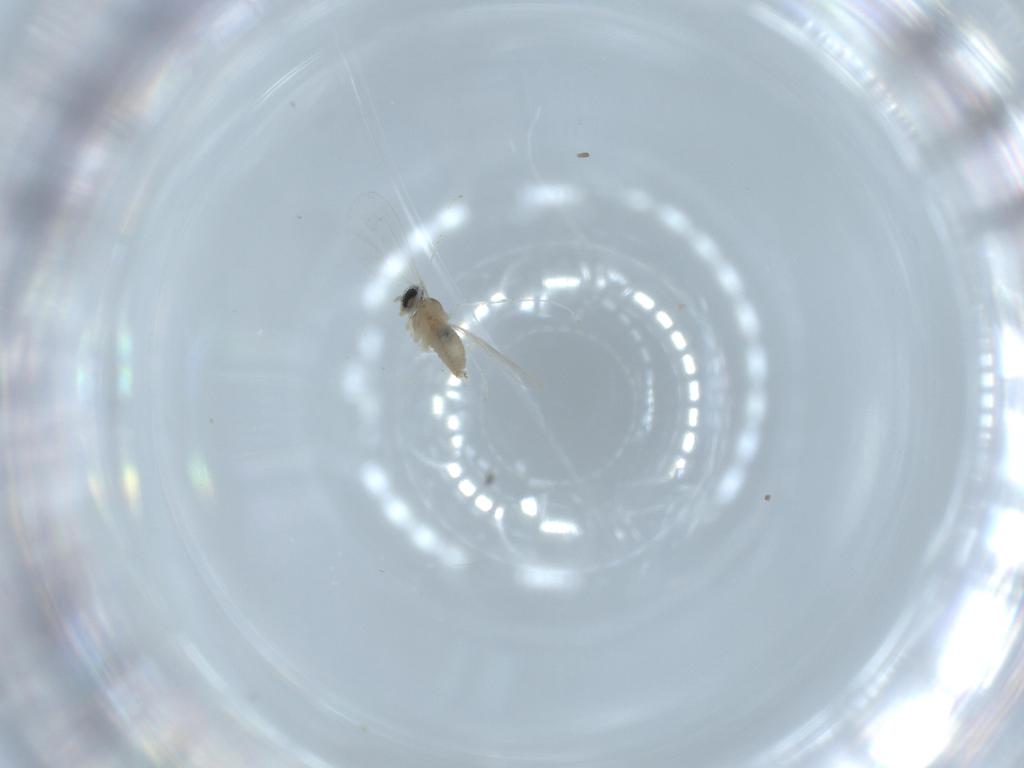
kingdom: Animalia
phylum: Arthropoda
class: Insecta
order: Diptera
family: Cecidomyiidae
